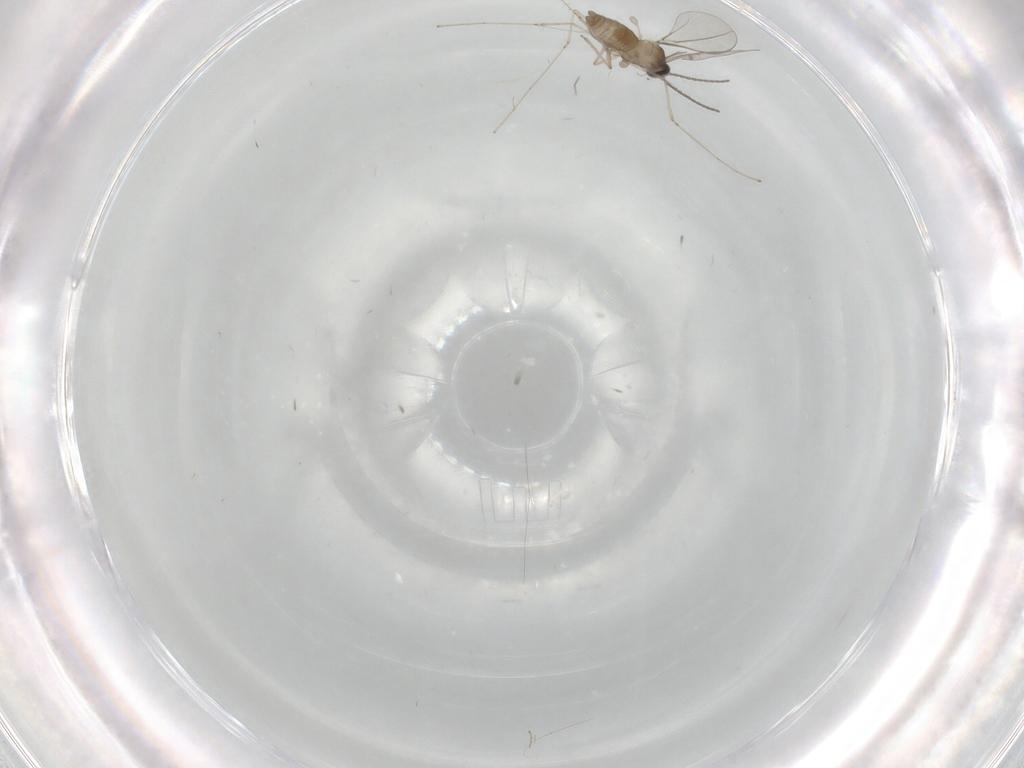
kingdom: Animalia
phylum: Arthropoda
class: Insecta
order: Diptera
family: Cecidomyiidae
